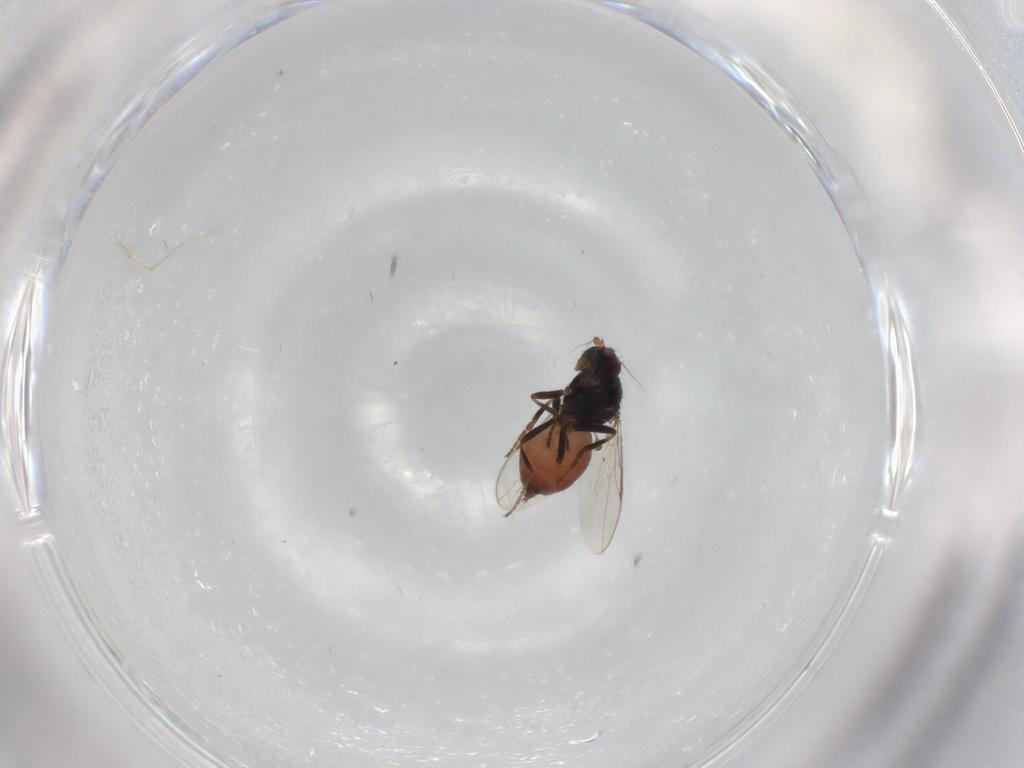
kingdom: Animalia
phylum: Arthropoda
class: Insecta
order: Diptera
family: Sphaeroceridae
